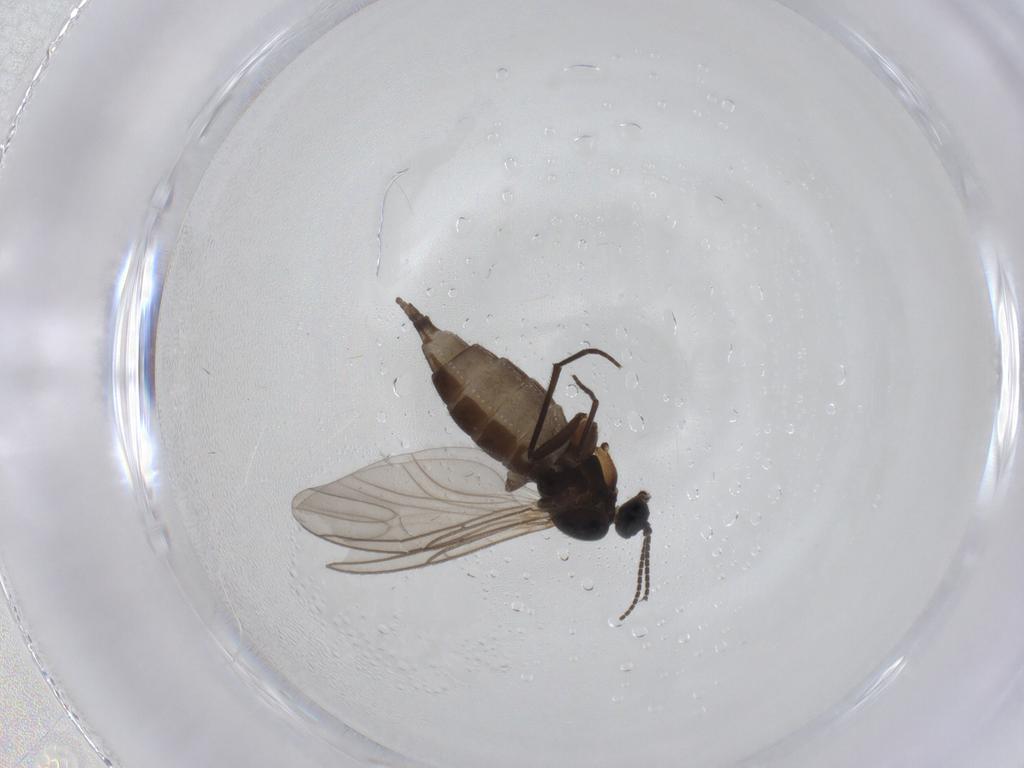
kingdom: Animalia
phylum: Arthropoda
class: Insecta
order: Diptera
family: Sciaridae
